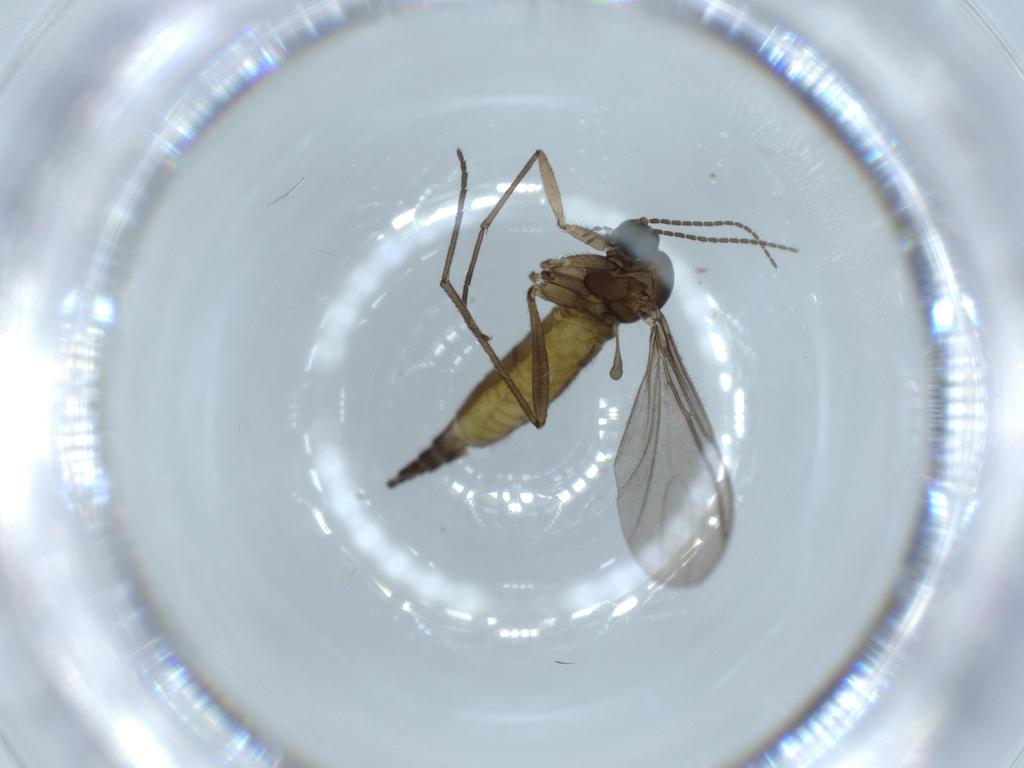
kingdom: Animalia
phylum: Arthropoda
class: Insecta
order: Diptera
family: Sciaridae
